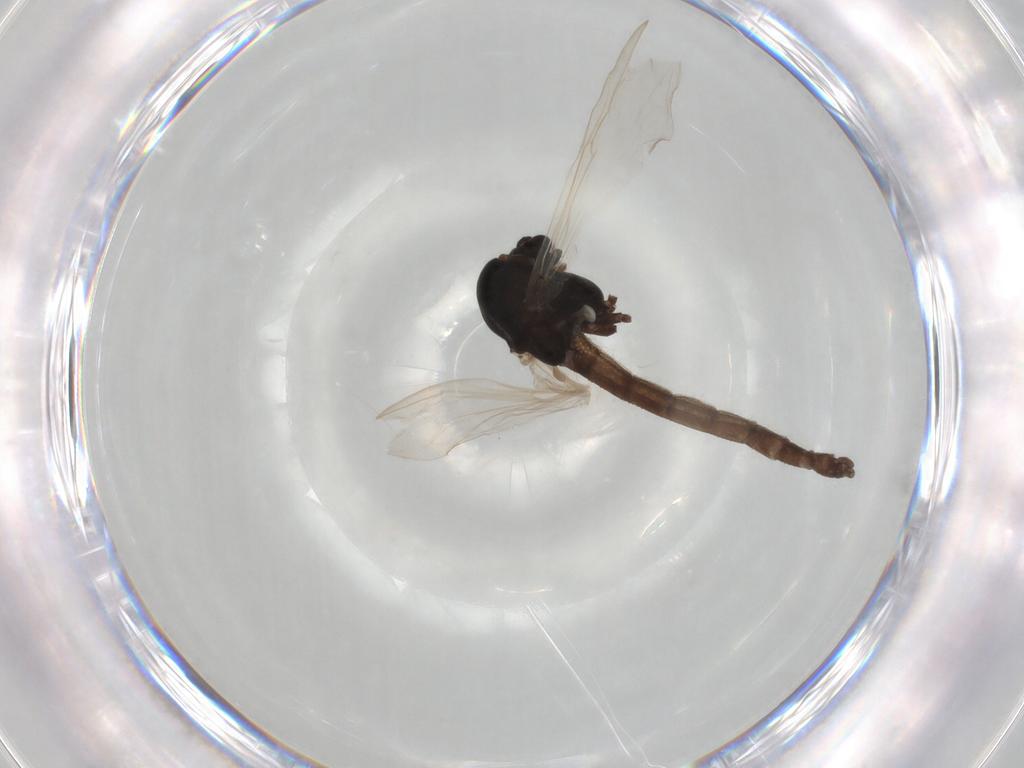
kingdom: Animalia
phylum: Arthropoda
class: Insecta
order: Diptera
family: Chironomidae
